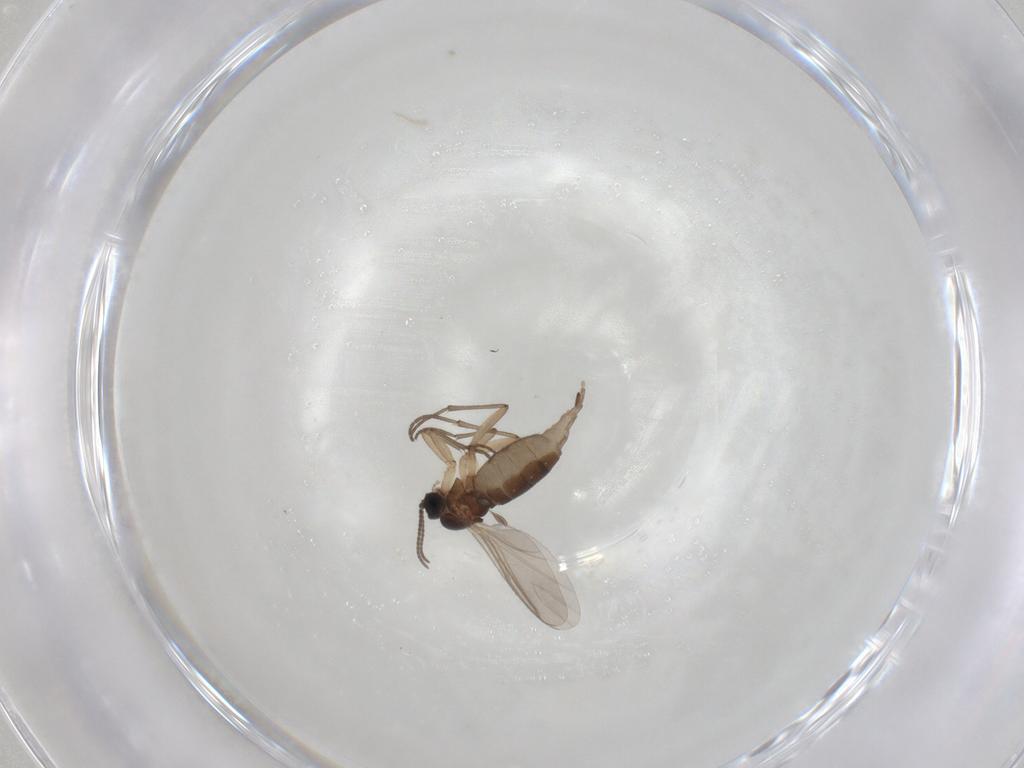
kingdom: Animalia
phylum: Arthropoda
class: Insecta
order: Diptera
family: Sciaridae
